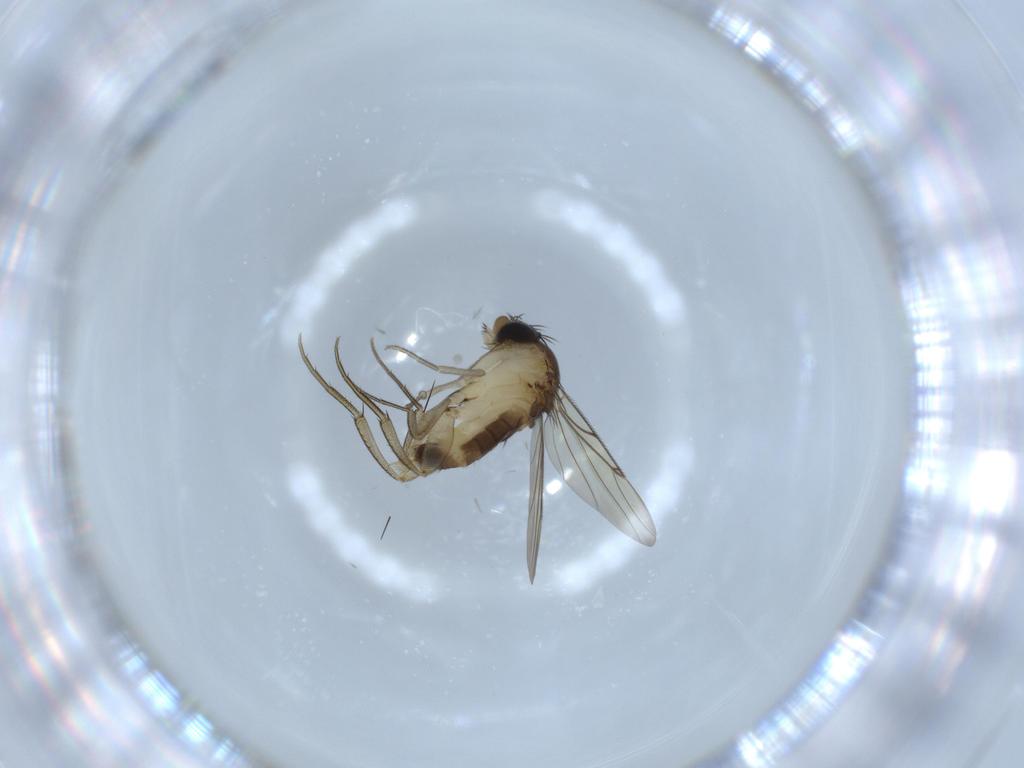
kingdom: Animalia
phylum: Arthropoda
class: Insecta
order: Diptera
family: Phoridae
